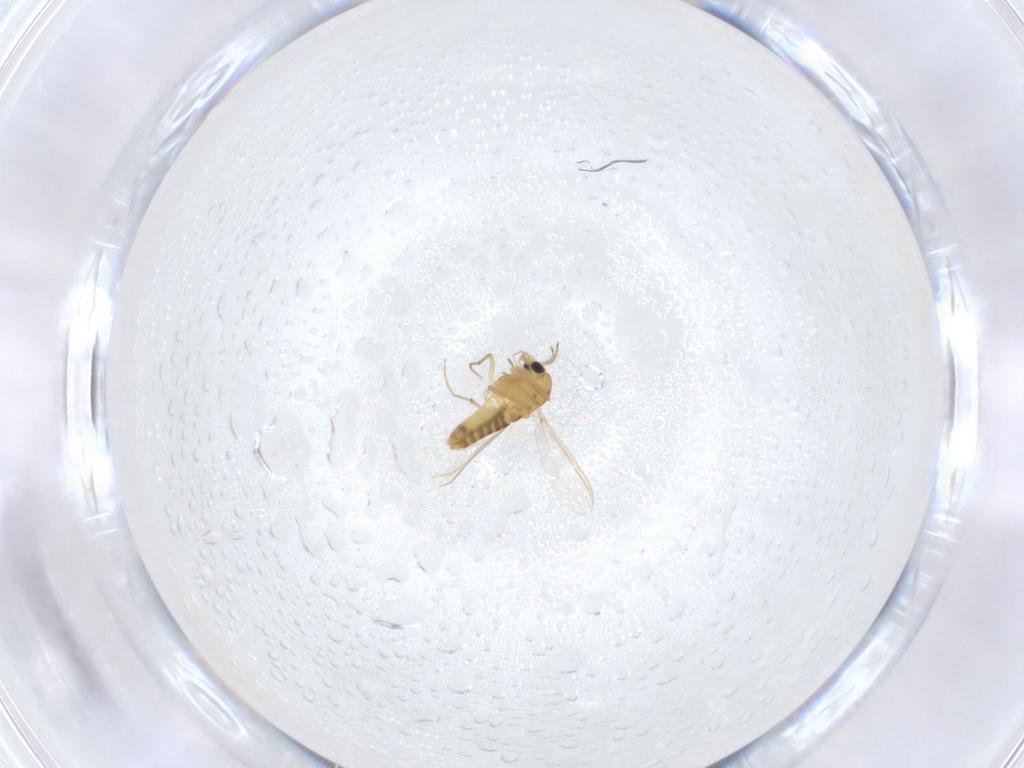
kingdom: Animalia
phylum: Arthropoda
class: Insecta
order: Diptera
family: Chironomidae
